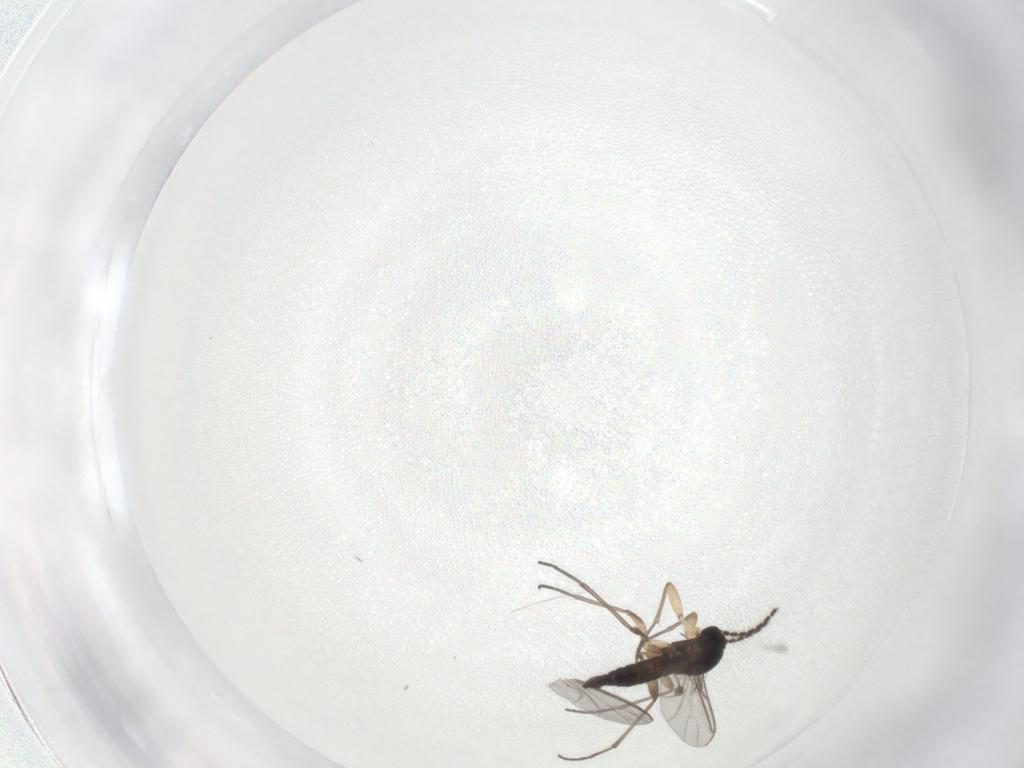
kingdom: Animalia
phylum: Arthropoda
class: Insecta
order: Diptera
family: Sciaridae
